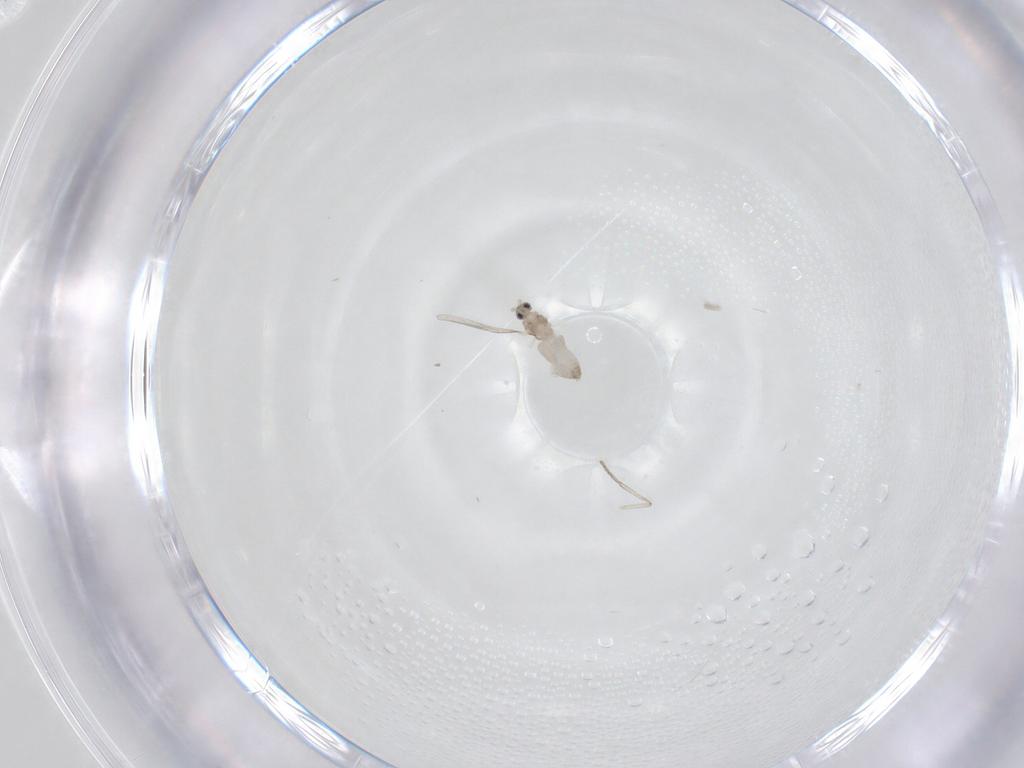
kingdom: Animalia
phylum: Arthropoda
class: Insecta
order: Diptera
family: Cecidomyiidae
